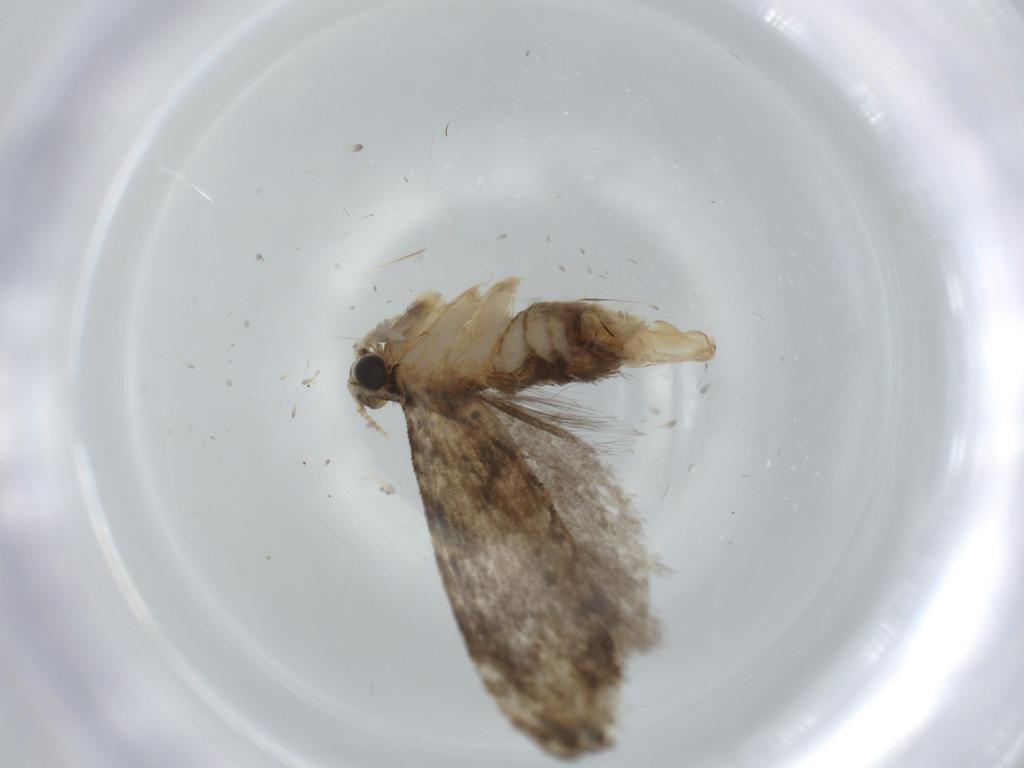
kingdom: Animalia
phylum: Arthropoda
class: Insecta
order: Lepidoptera
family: Tineidae
